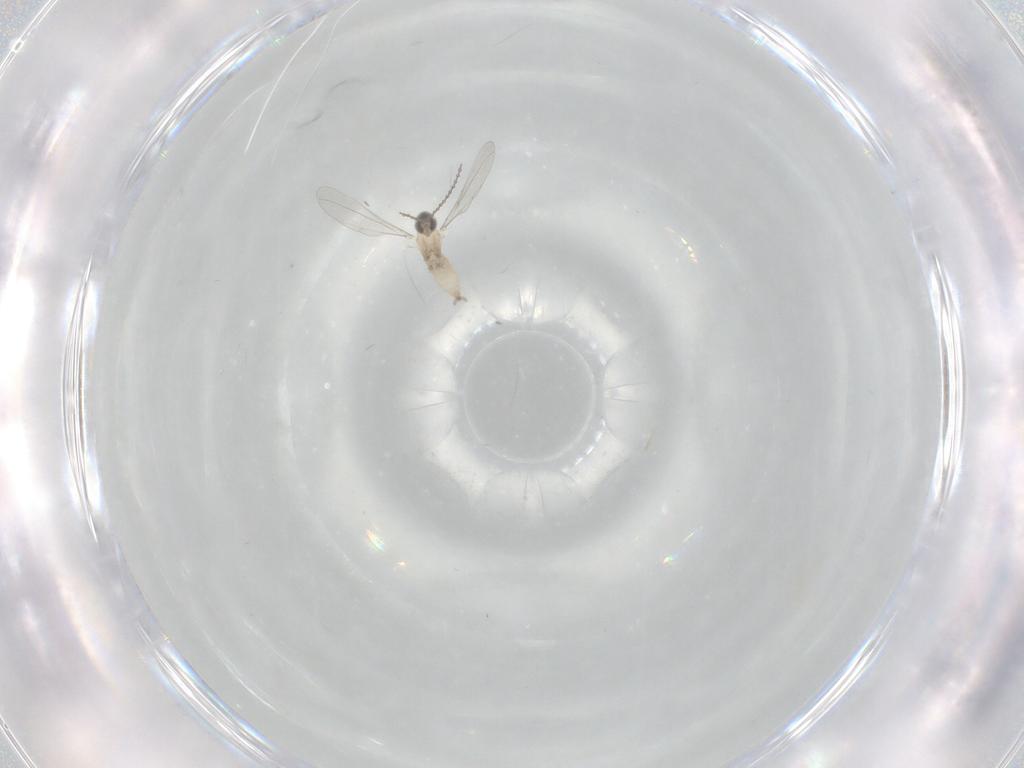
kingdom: Animalia
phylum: Arthropoda
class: Insecta
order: Diptera
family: Cecidomyiidae
